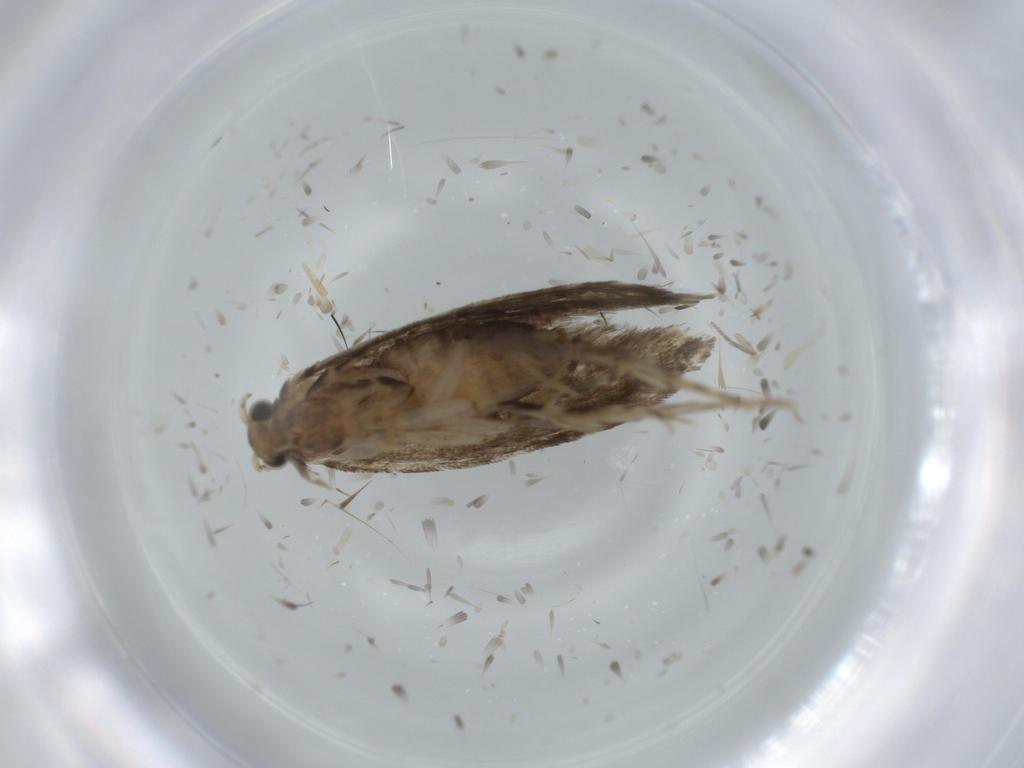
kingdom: Animalia
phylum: Arthropoda
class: Insecta
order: Lepidoptera
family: Tineidae
